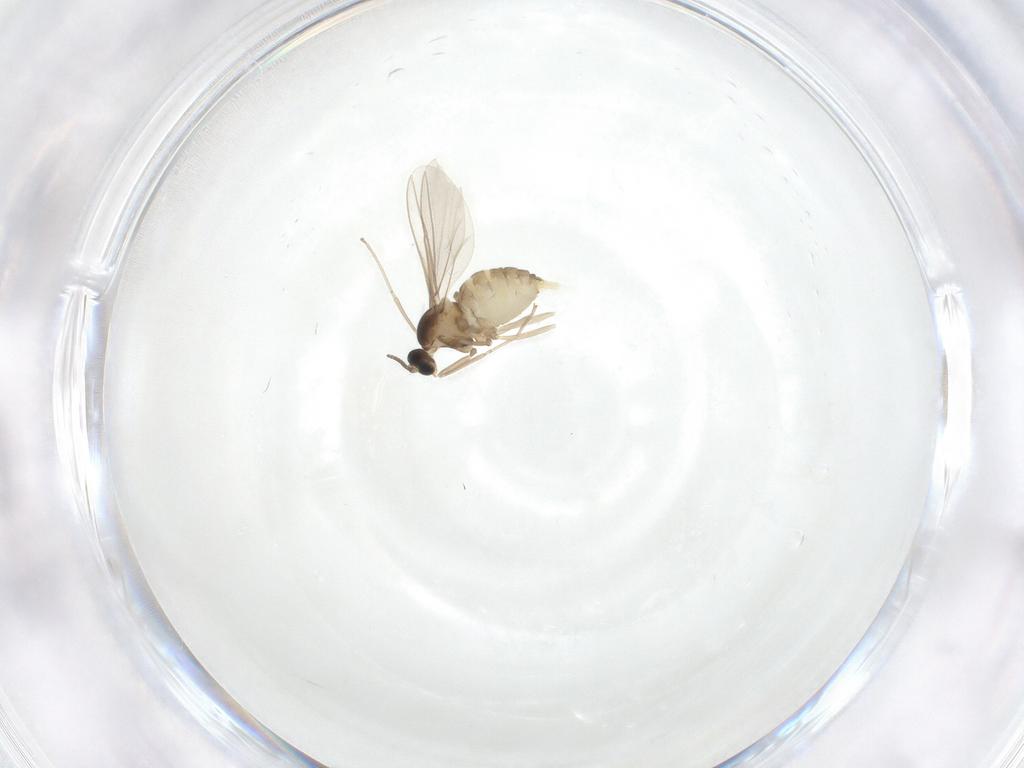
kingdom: Animalia
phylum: Arthropoda
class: Insecta
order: Diptera
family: Cecidomyiidae
